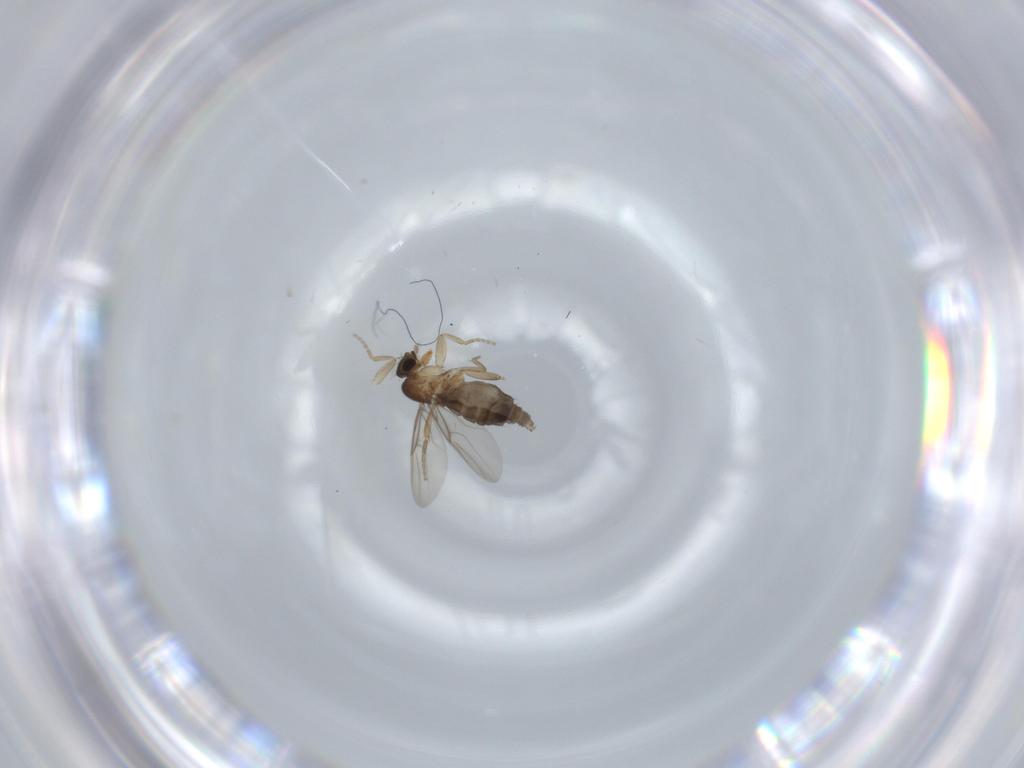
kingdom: Animalia
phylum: Arthropoda
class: Insecta
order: Diptera
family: Phoridae
